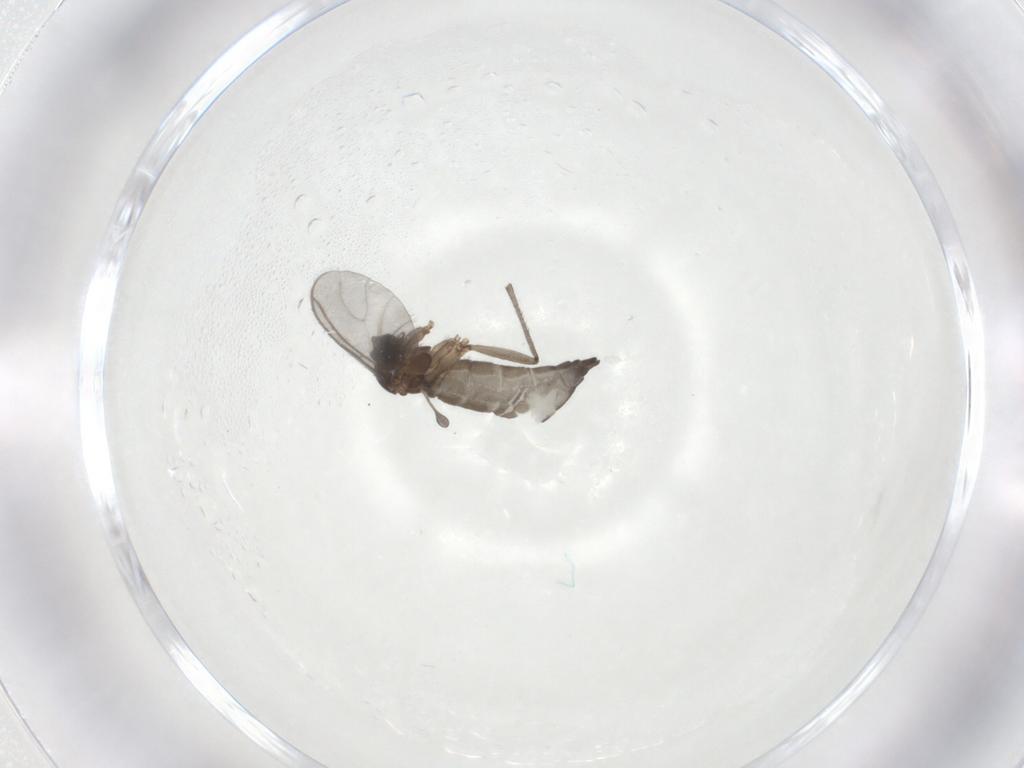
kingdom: Animalia
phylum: Arthropoda
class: Insecta
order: Diptera
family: Sciaridae
